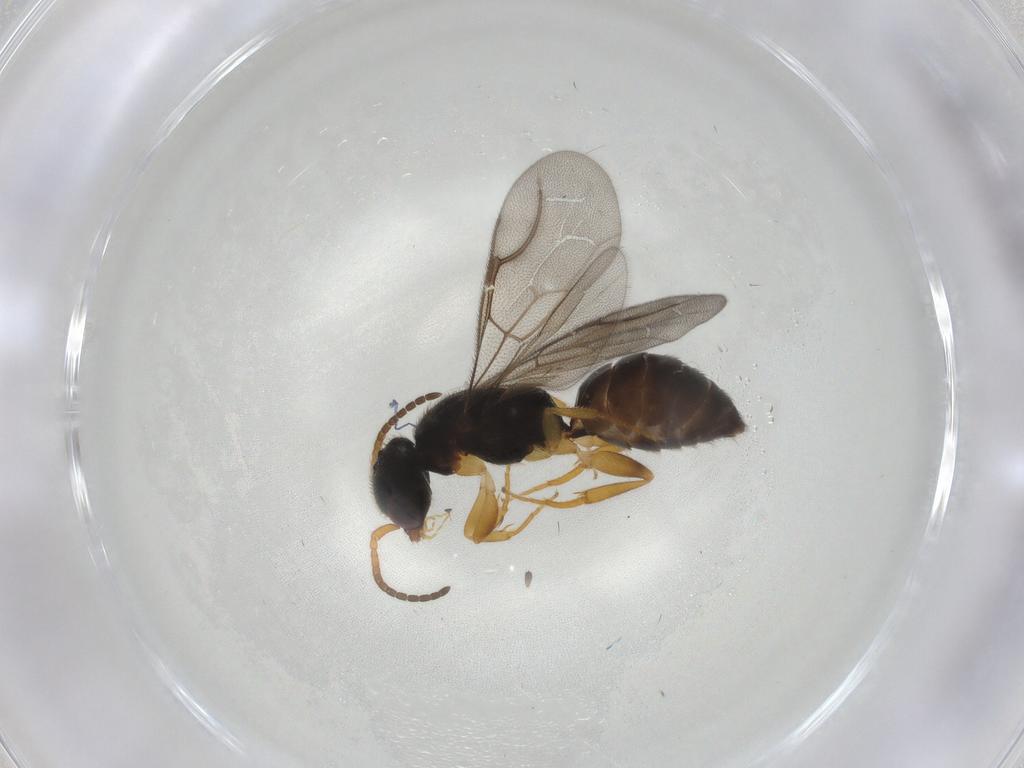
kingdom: Animalia
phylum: Arthropoda
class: Insecta
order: Hymenoptera
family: Bethylidae
